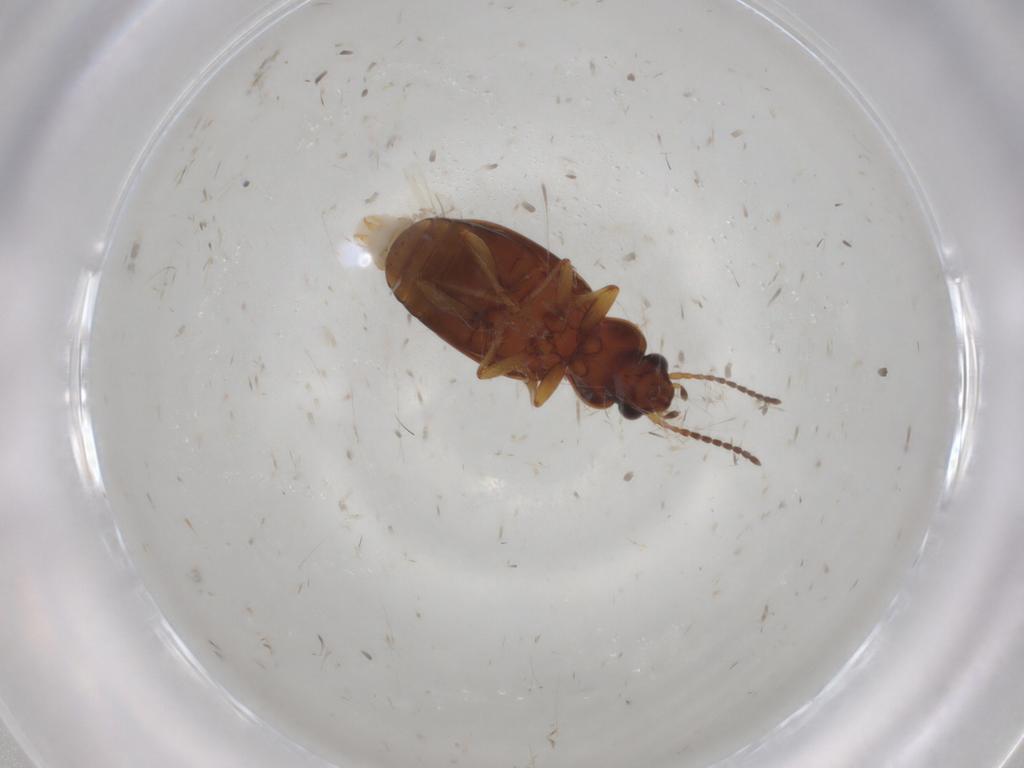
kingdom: Animalia
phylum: Arthropoda
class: Insecta
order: Coleoptera
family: Carabidae
